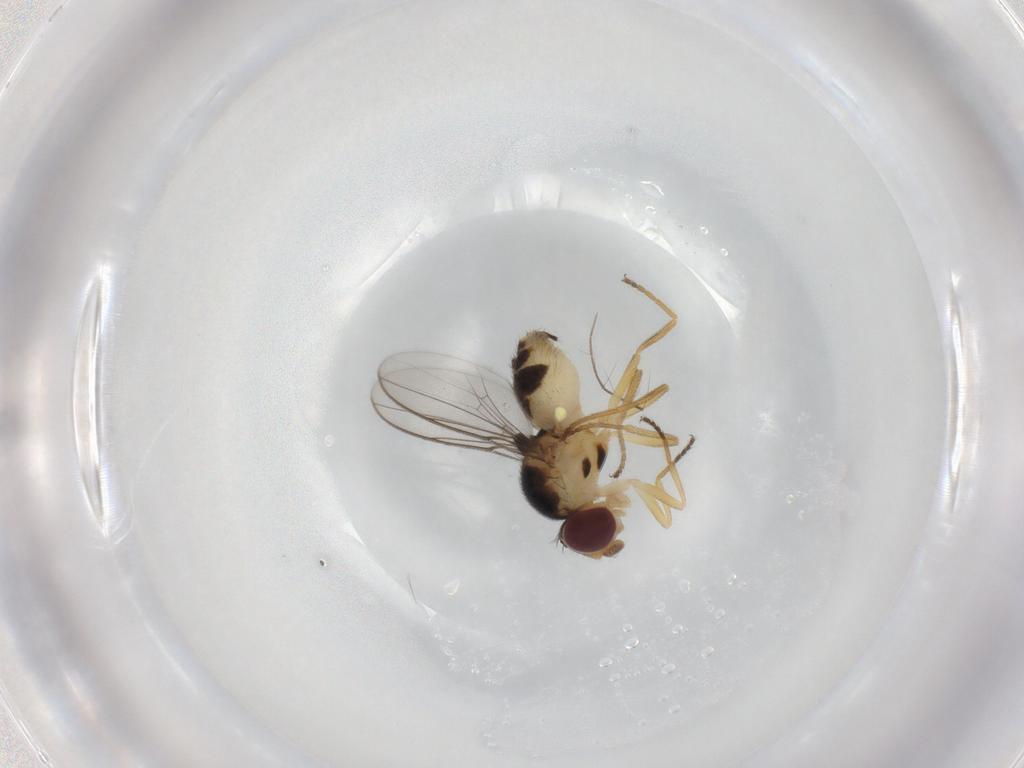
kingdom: Animalia
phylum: Arthropoda
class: Insecta
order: Diptera
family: Chloropidae
